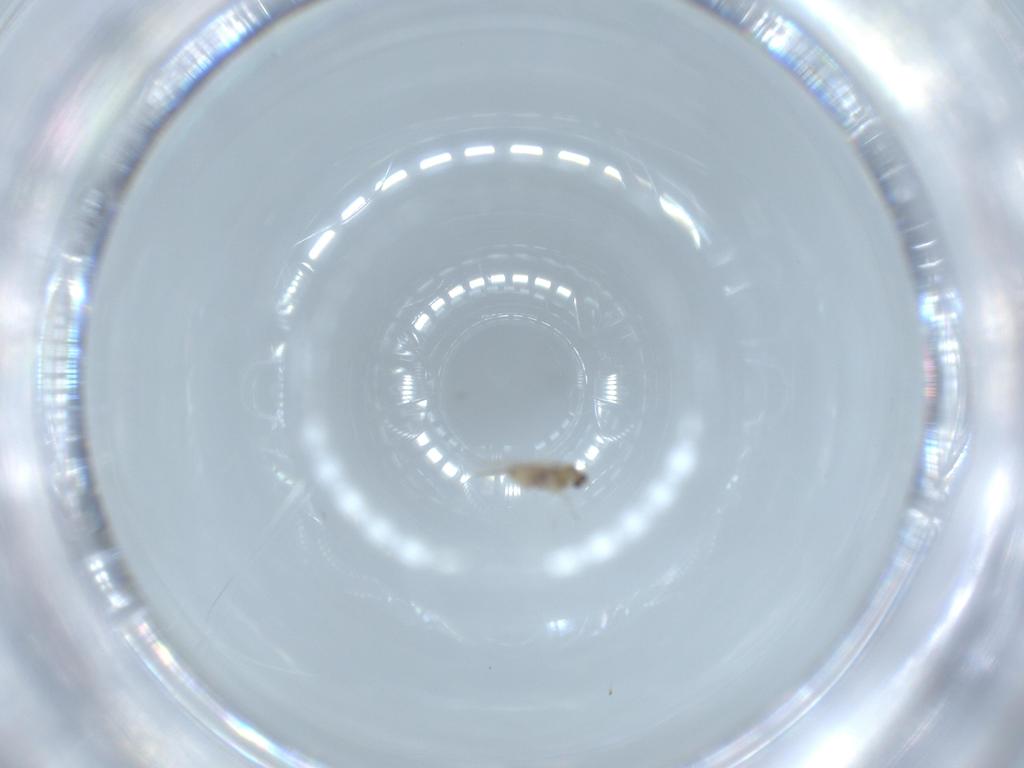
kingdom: Animalia
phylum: Arthropoda
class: Insecta
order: Diptera
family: Cecidomyiidae
